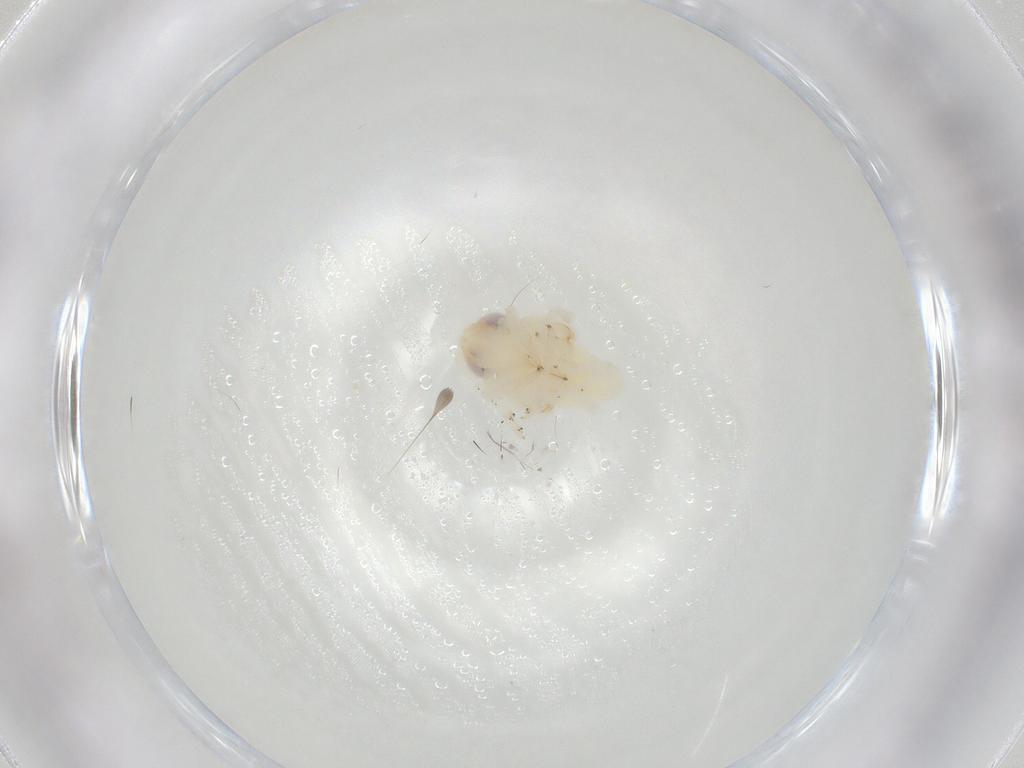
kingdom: Animalia
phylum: Arthropoda
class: Insecta
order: Hemiptera
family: Nogodinidae
